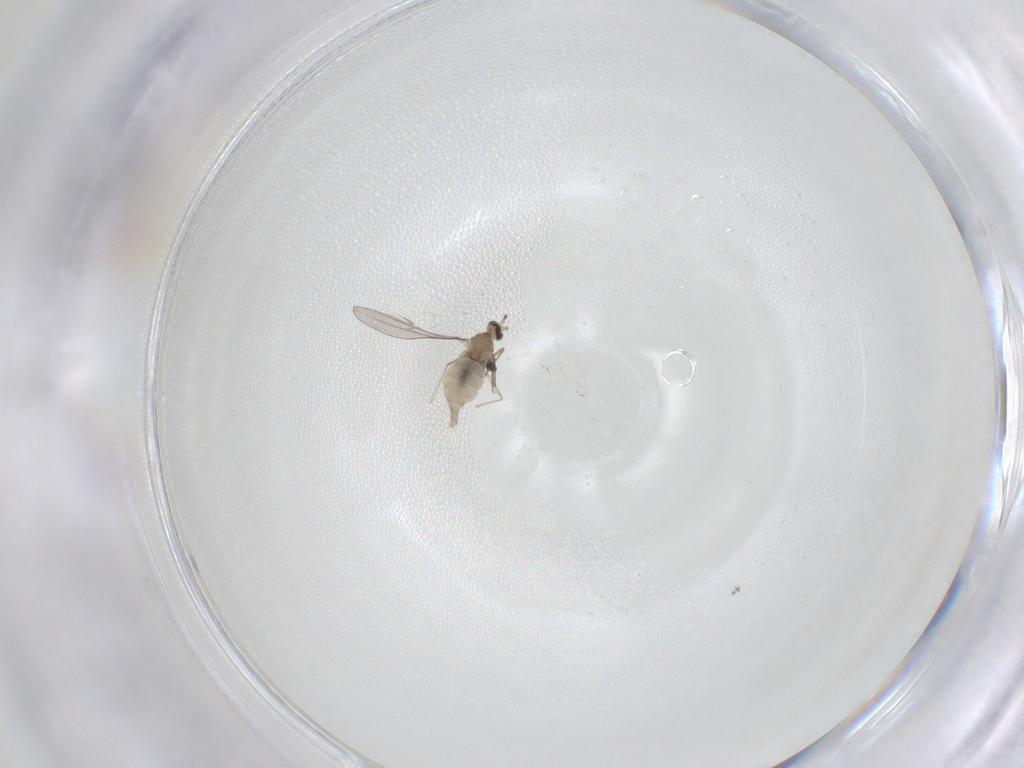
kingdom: Animalia
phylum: Arthropoda
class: Insecta
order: Diptera
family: Cecidomyiidae
